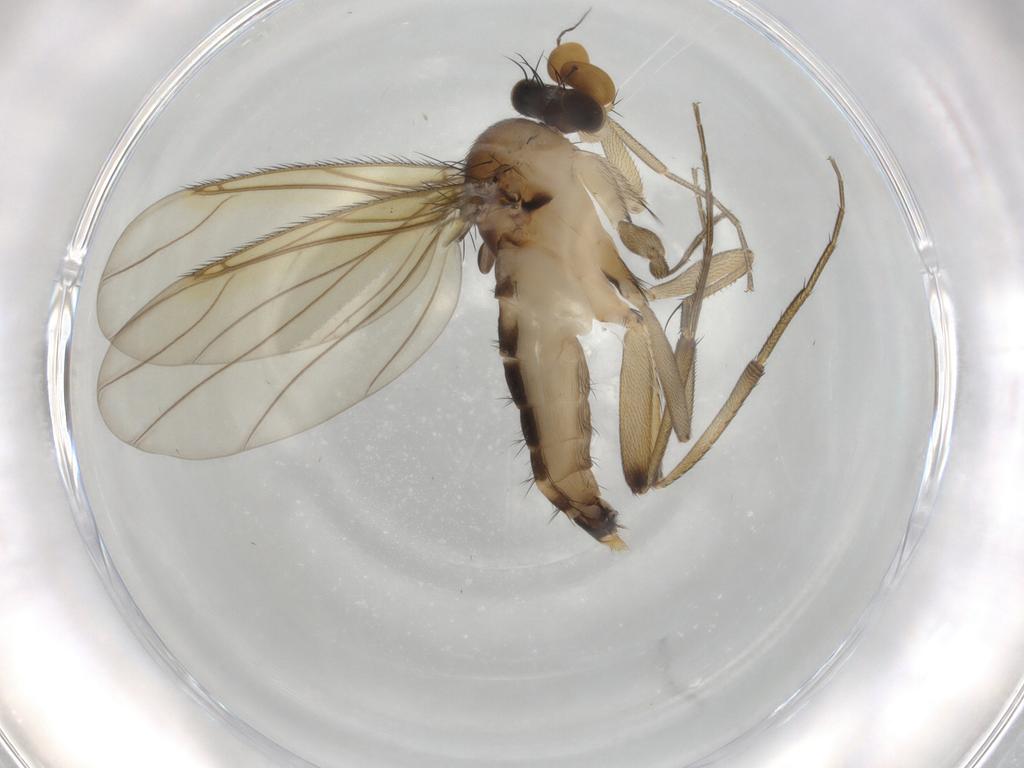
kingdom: Animalia
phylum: Arthropoda
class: Insecta
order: Diptera
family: Phoridae
